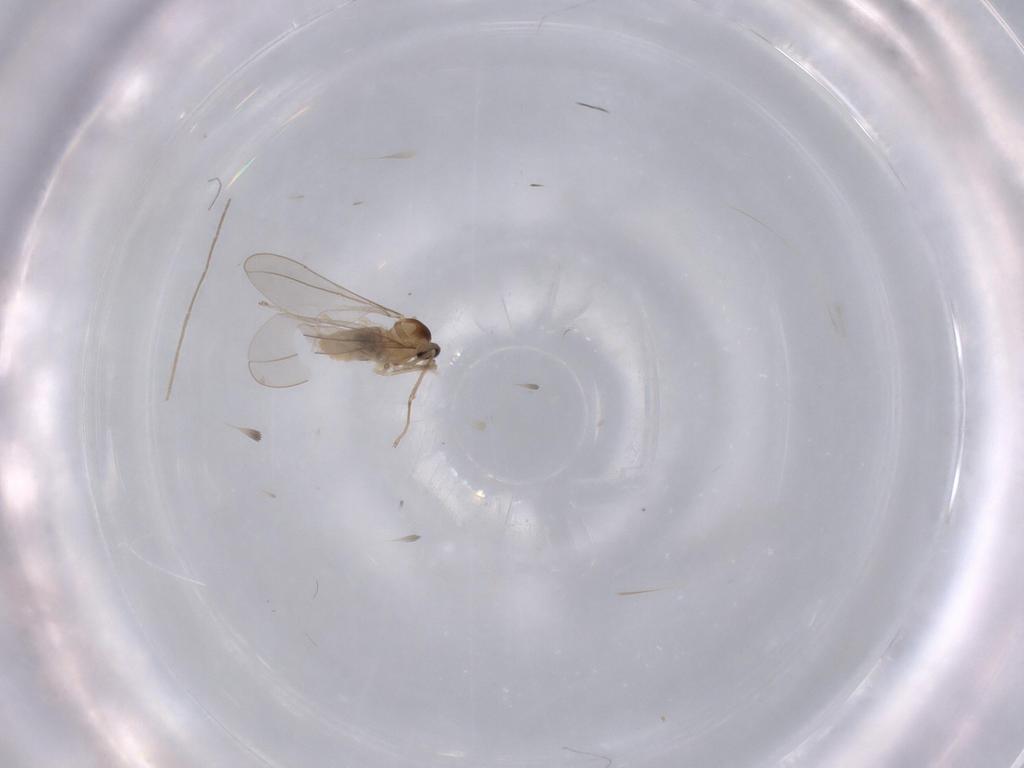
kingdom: Animalia
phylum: Arthropoda
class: Insecta
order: Diptera
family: Cecidomyiidae
